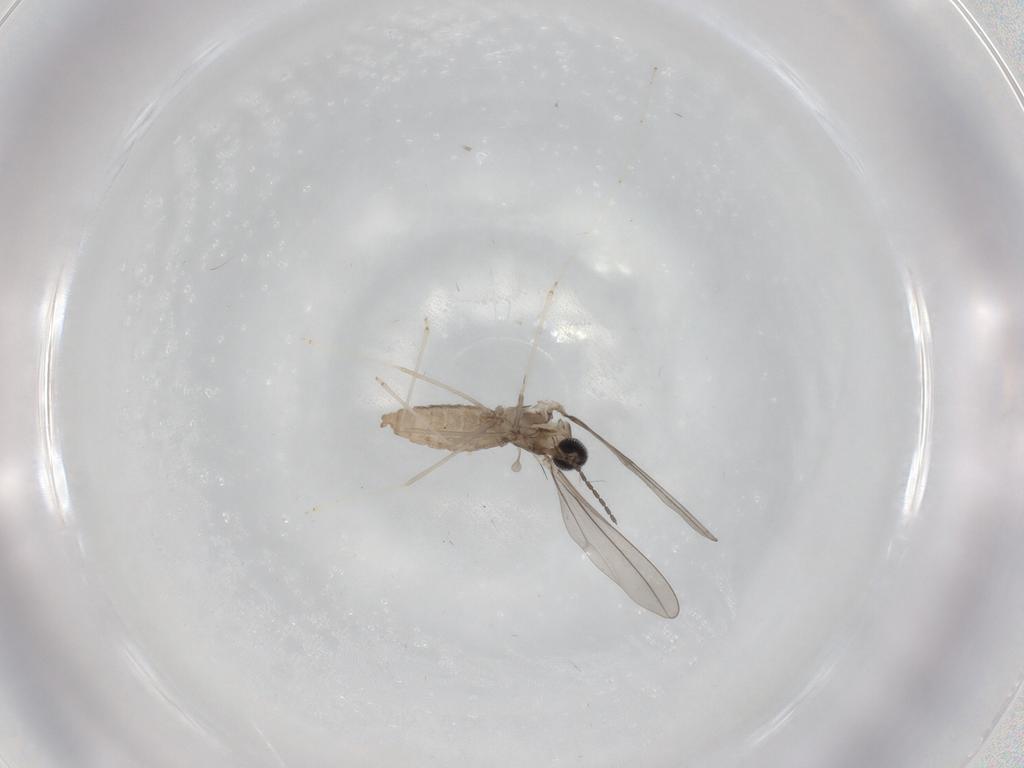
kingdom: Animalia
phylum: Arthropoda
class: Insecta
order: Diptera
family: Cecidomyiidae
